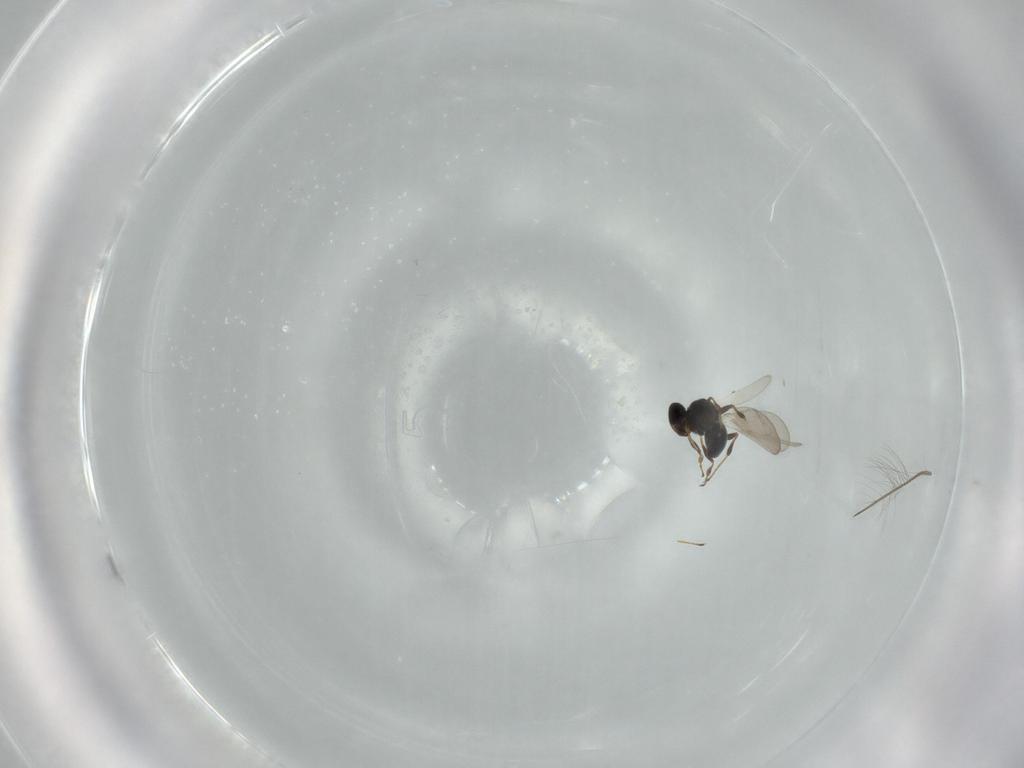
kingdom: Animalia
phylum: Arthropoda
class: Insecta
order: Hymenoptera
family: Platygastridae
